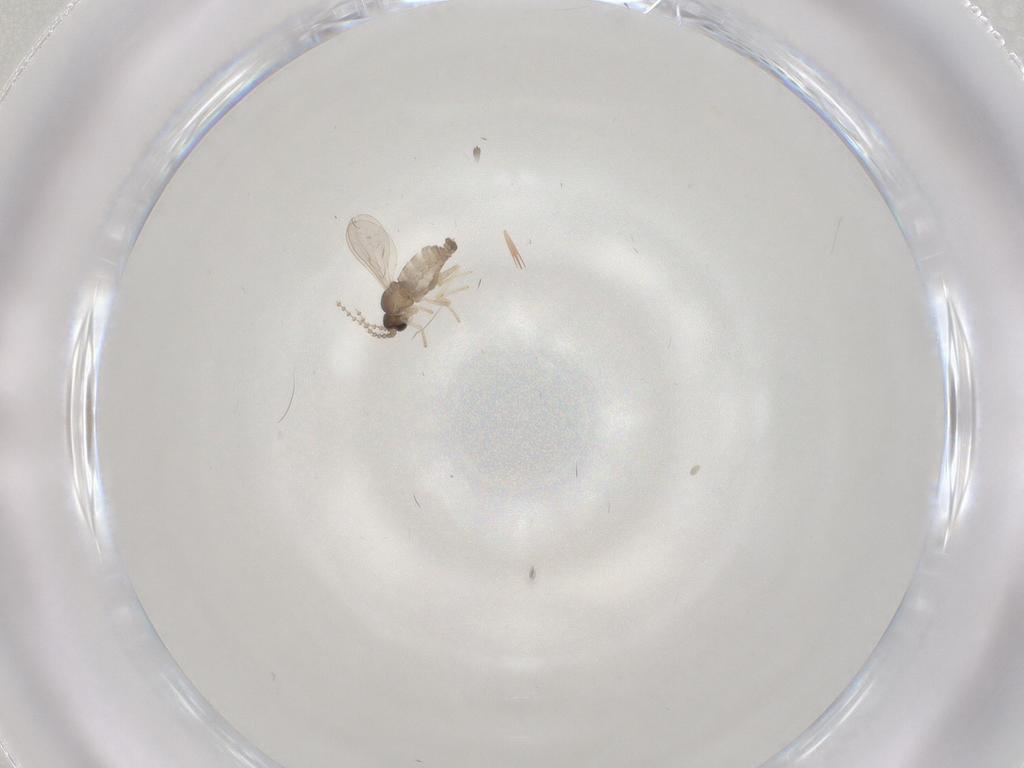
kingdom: Animalia
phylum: Arthropoda
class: Insecta
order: Diptera
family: Cecidomyiidae
